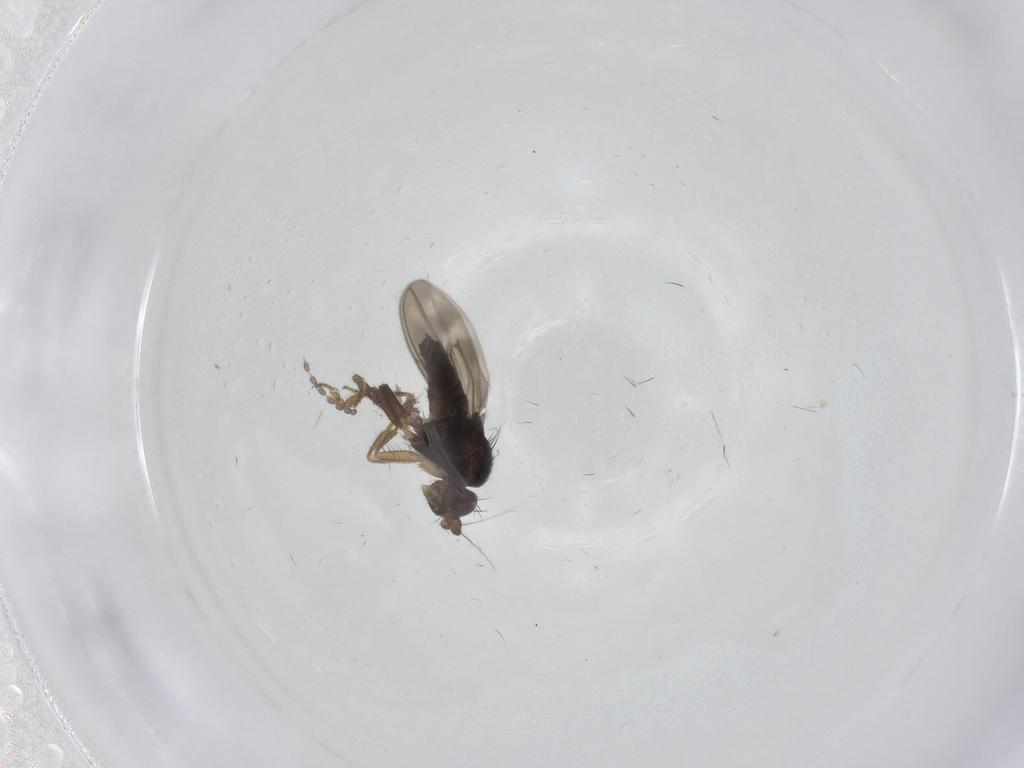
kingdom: Animalia
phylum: Arthropoda
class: Insecta
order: Diptera
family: Sphaeroceridae
